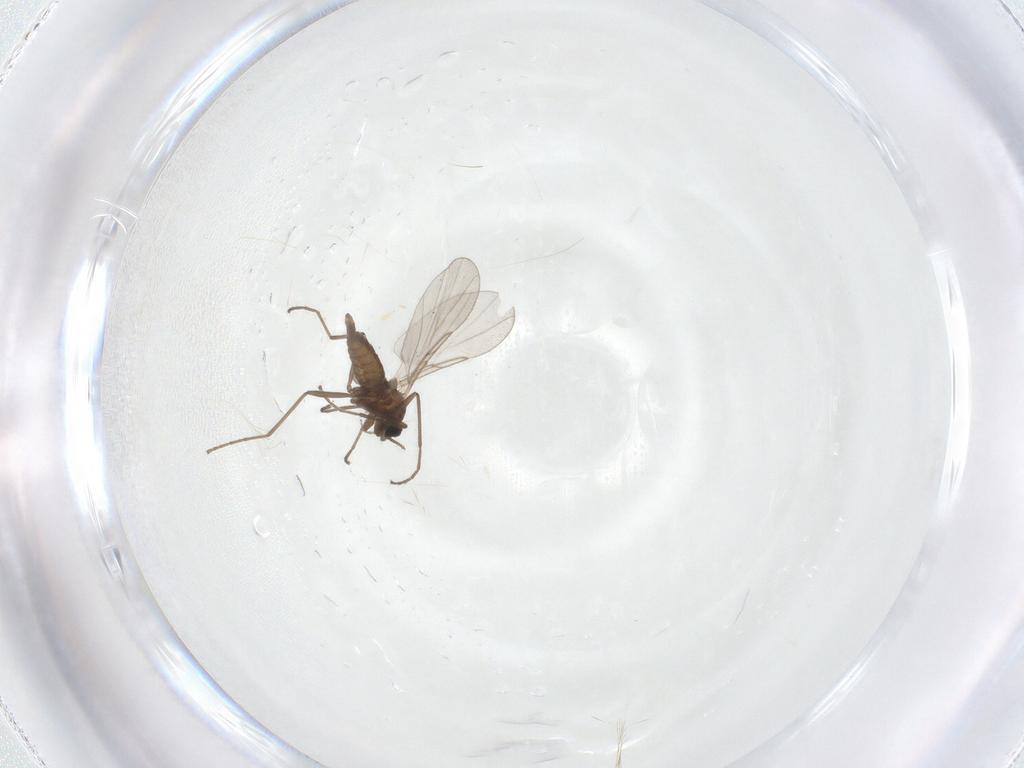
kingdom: Animalia
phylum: Arthropoda
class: Insecta
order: Diptera
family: Cecidomyiidae
